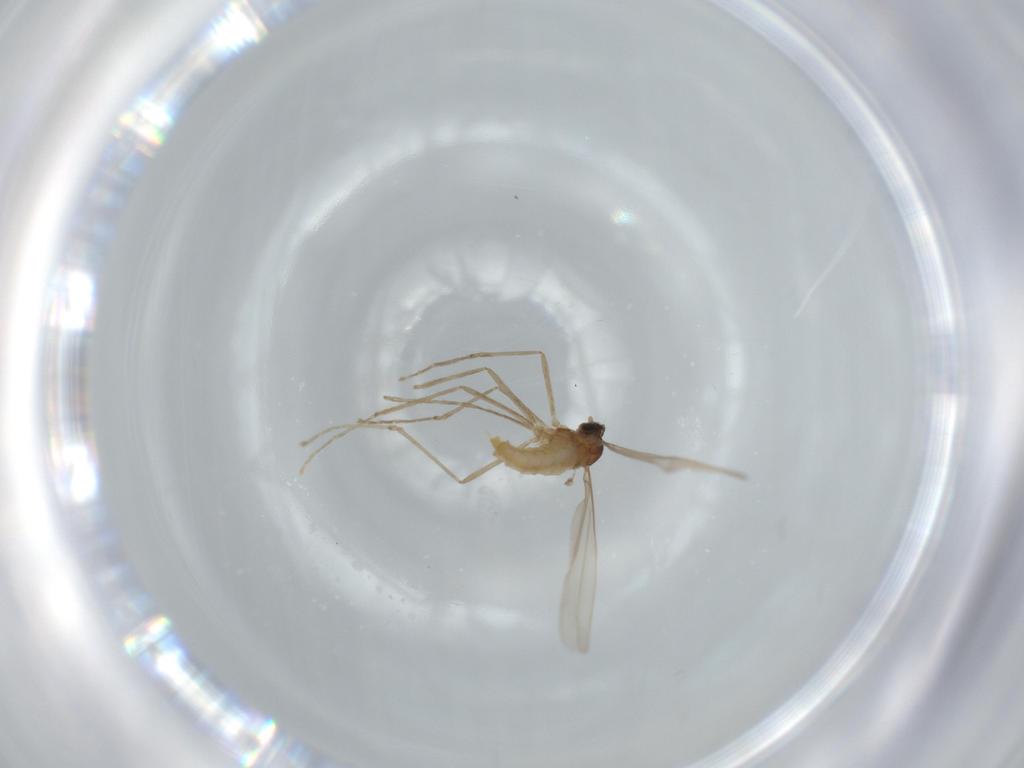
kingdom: Animalia
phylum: Arthropoda
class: Insecta
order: Diptera
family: Cecidomyiidae
